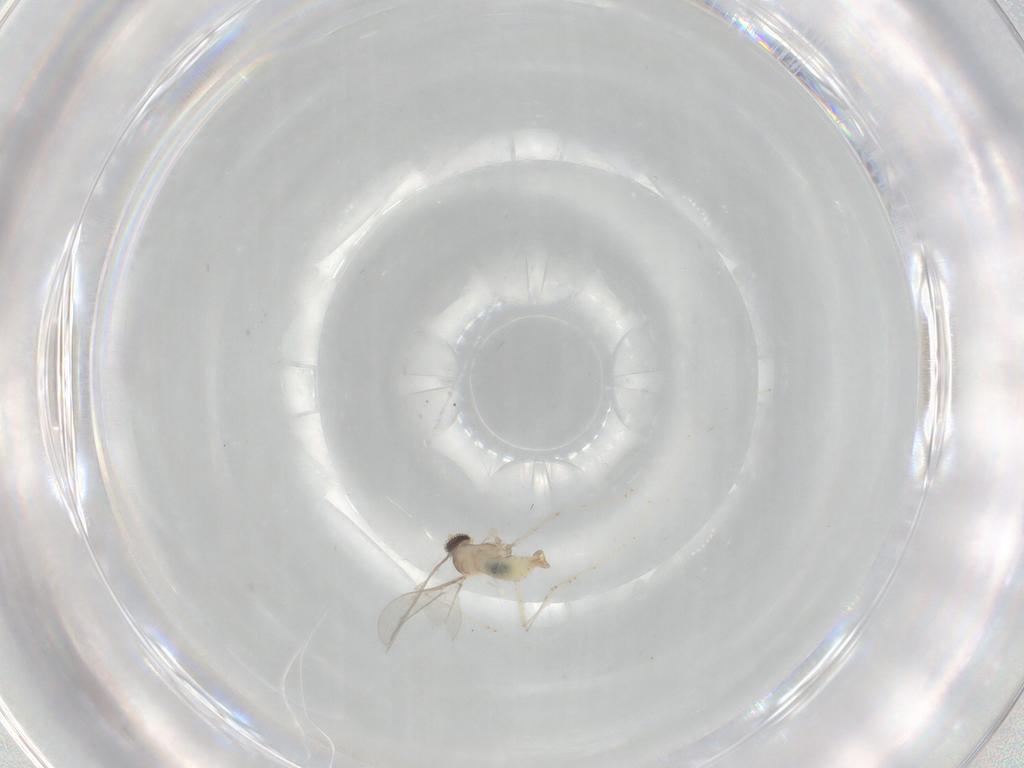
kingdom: Animalia
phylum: Arthropoda
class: Insecta
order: Diptera
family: Cecidomyiidae
